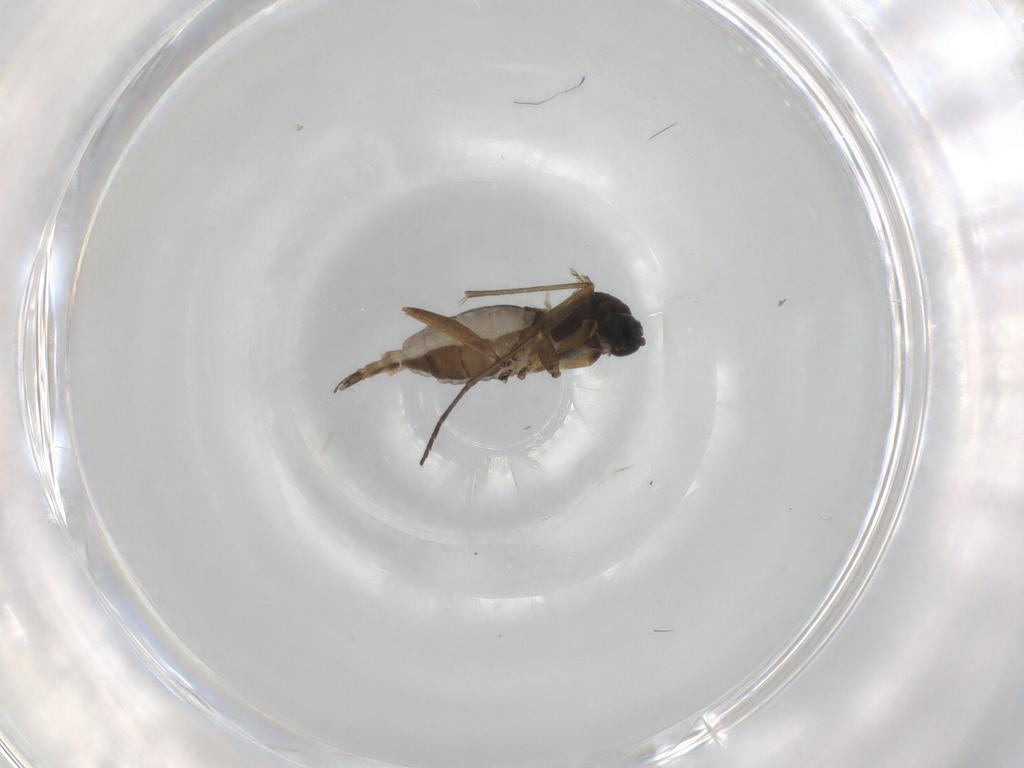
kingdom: Animalia
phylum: Arthropoda
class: Insecta
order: Diptera
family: Sciaridae
